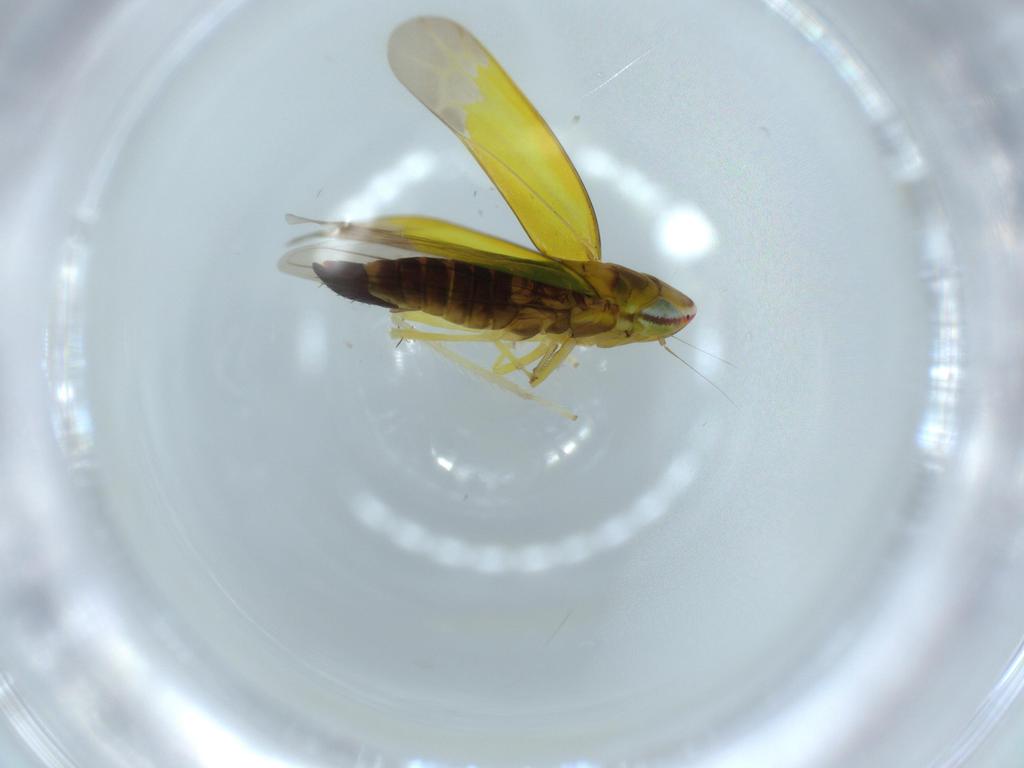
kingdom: Animalia
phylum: Arthropoda
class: Insecta
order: Hemiptera
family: Cicadellidae
